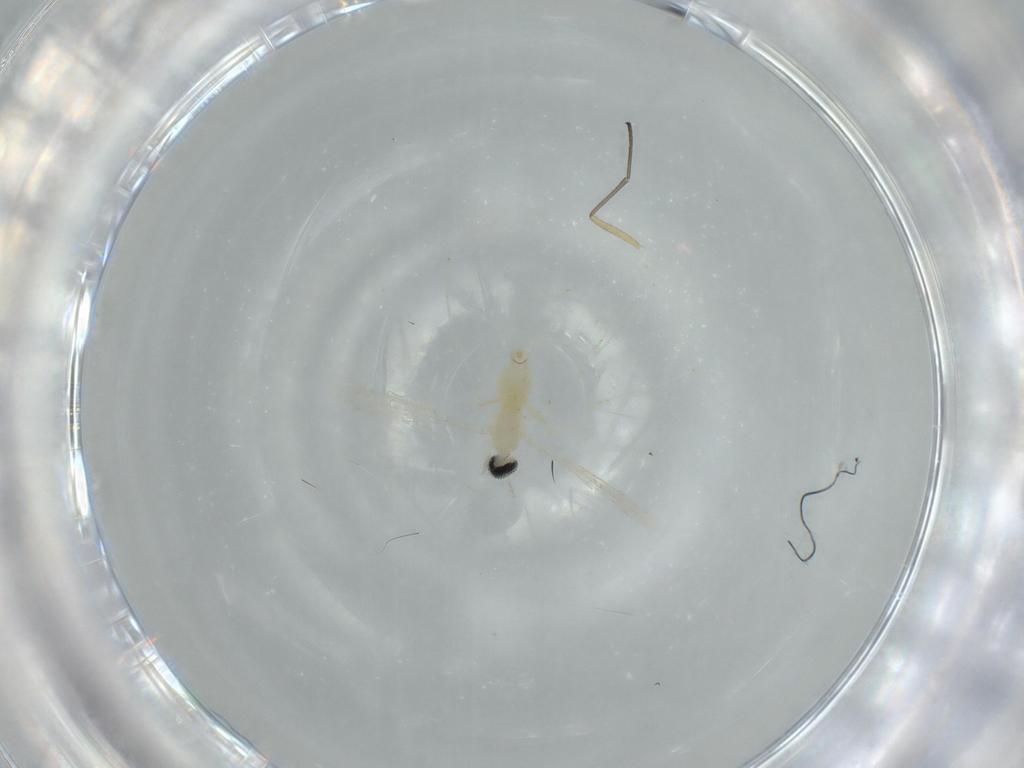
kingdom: Animalia
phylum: Arthropoda
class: Insecta
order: Diptera
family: Cecidomyiidae
